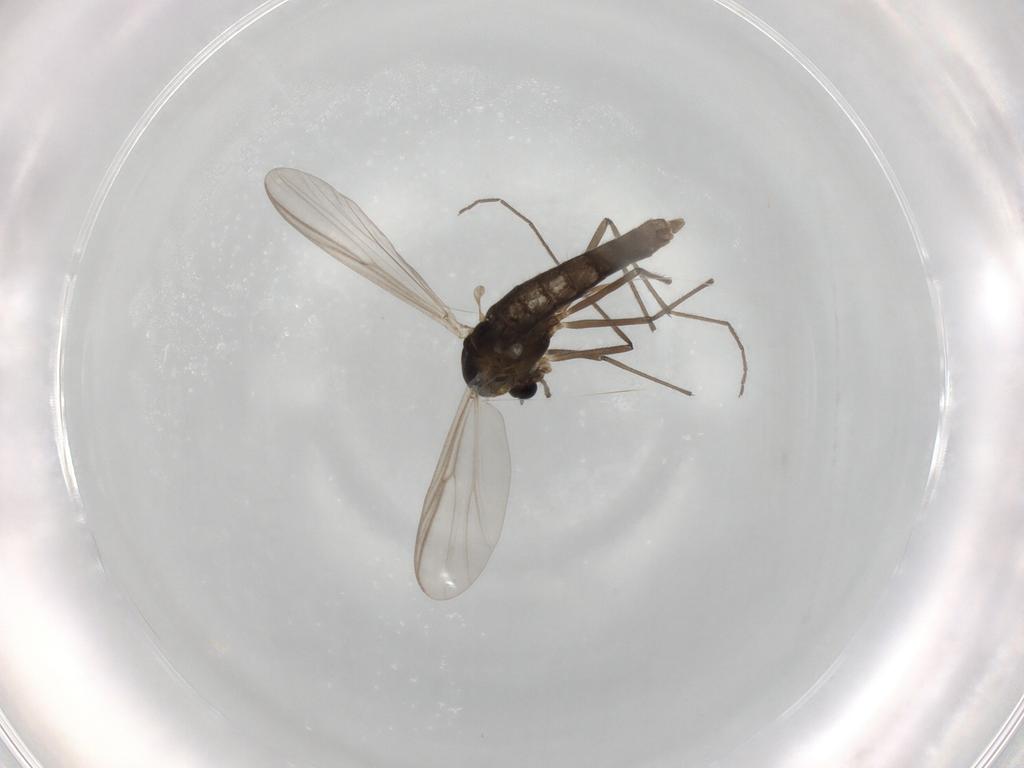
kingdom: Animalia
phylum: Arthropoda
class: Insecta
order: Diptera
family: Chironomidae
